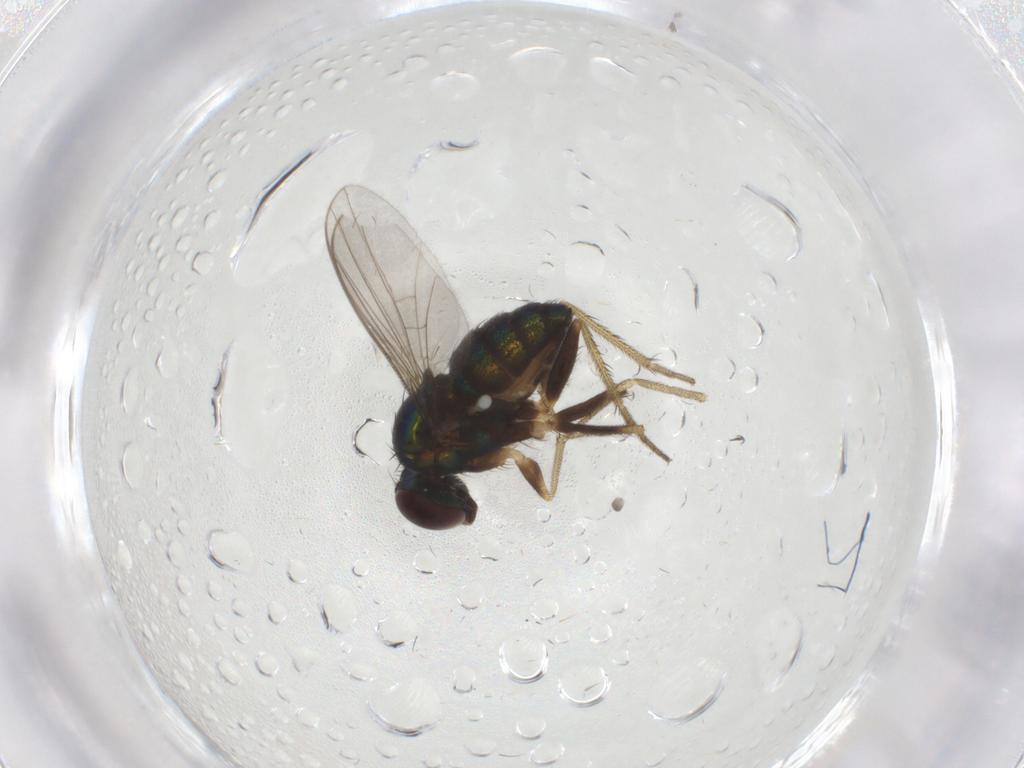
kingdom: Animalia
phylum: Arthropoda
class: Insecta
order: Diptera
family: Dolichopodidae
